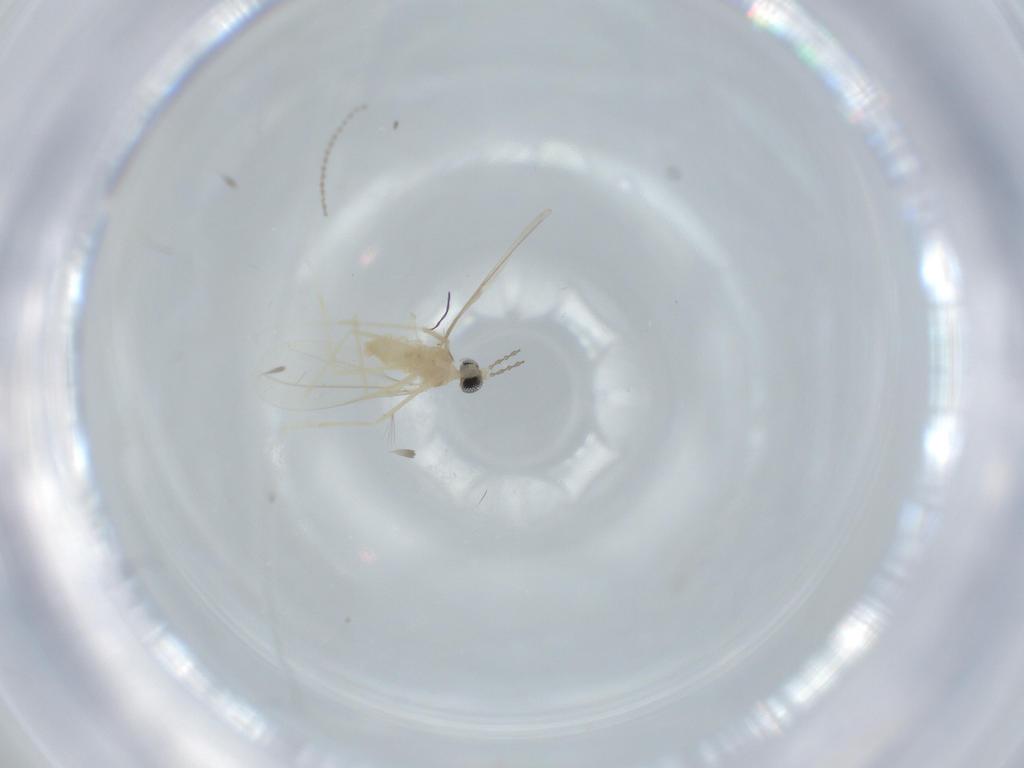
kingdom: Animalia
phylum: Arthropoda
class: Insecta
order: Diptera
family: Cecidomyiidae
